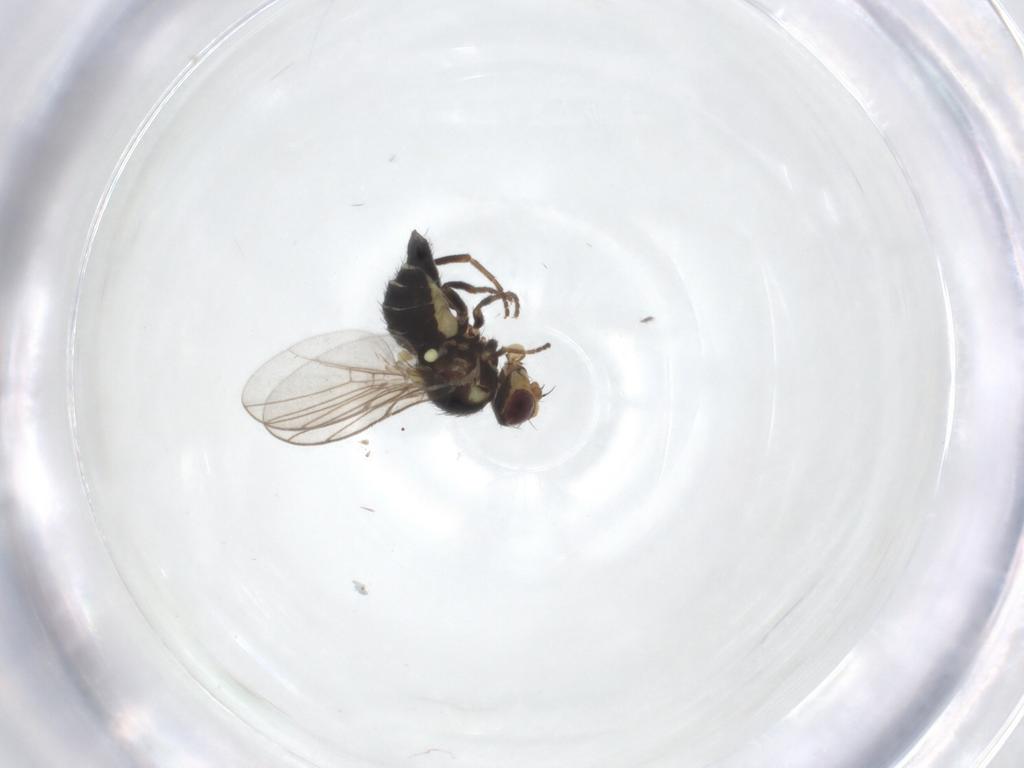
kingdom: Animalia
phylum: Arthropoda
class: Insecta
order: Diptera
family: Agromyzidae
